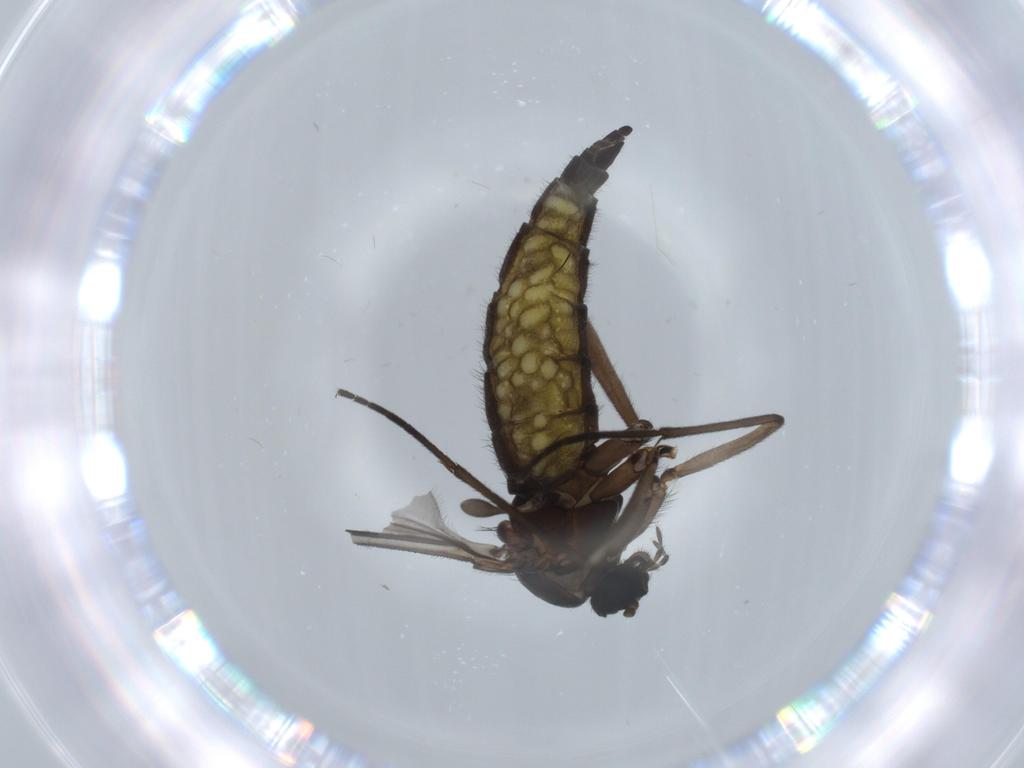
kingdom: Animalia
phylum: Arthropoda
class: Insecta
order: Diptera
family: Sciaridae
